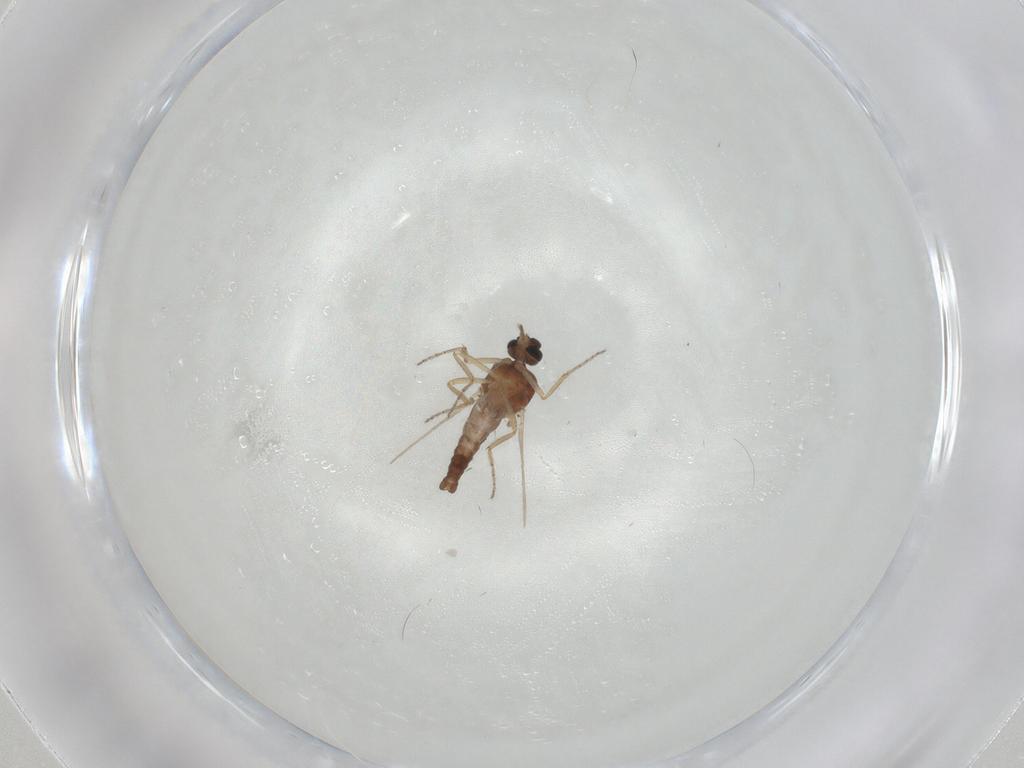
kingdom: Animalia
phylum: Arthropoda
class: Insecta
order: Diptera
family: Ceratopogonidae
